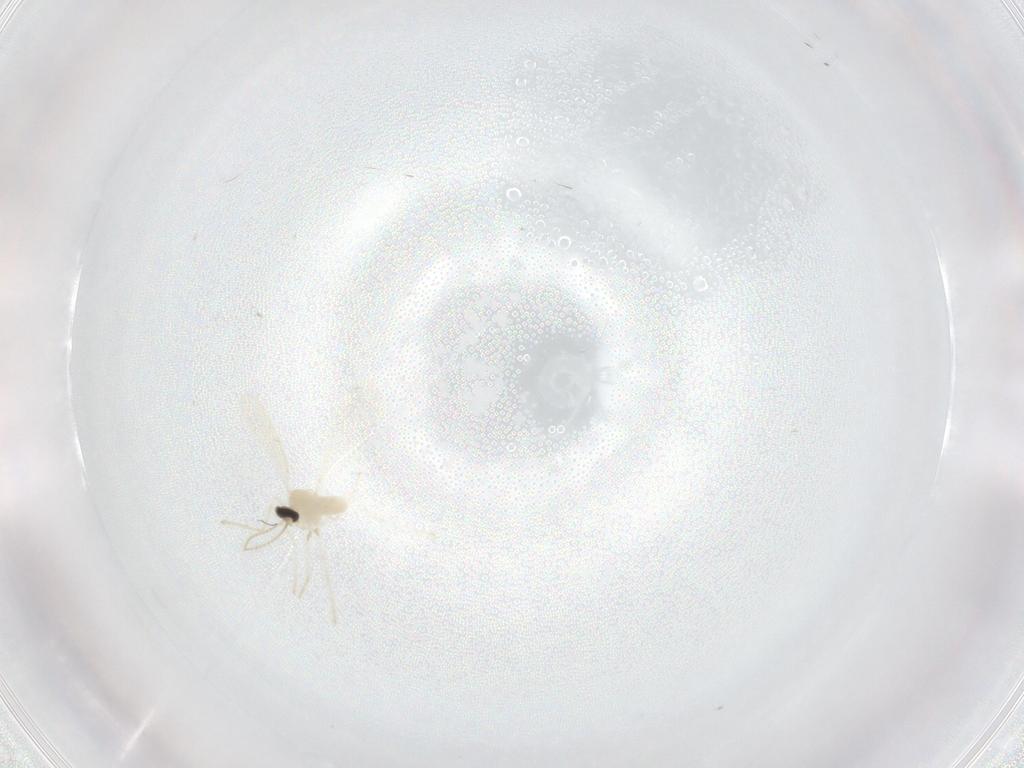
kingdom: Animalia
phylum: Arthropoda
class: Insecta
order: Diptera
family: Cecidomyiidae
